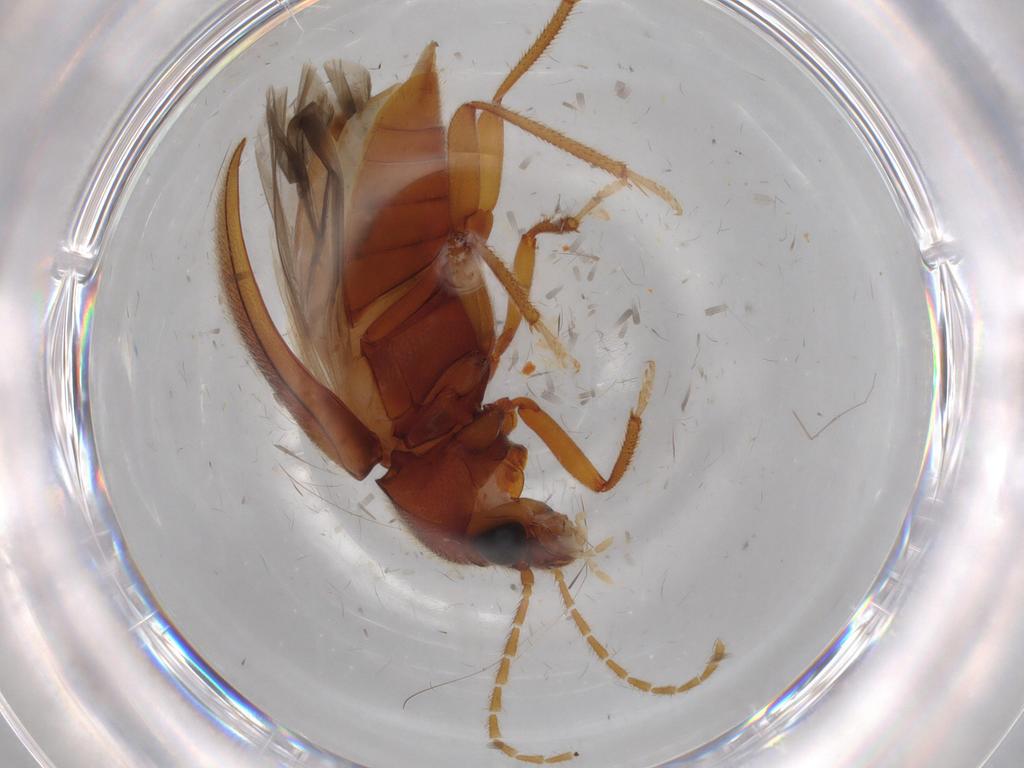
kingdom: Animalia
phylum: Arthropoda
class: Insecta
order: Coleoptera
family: Ptilodactylidae
